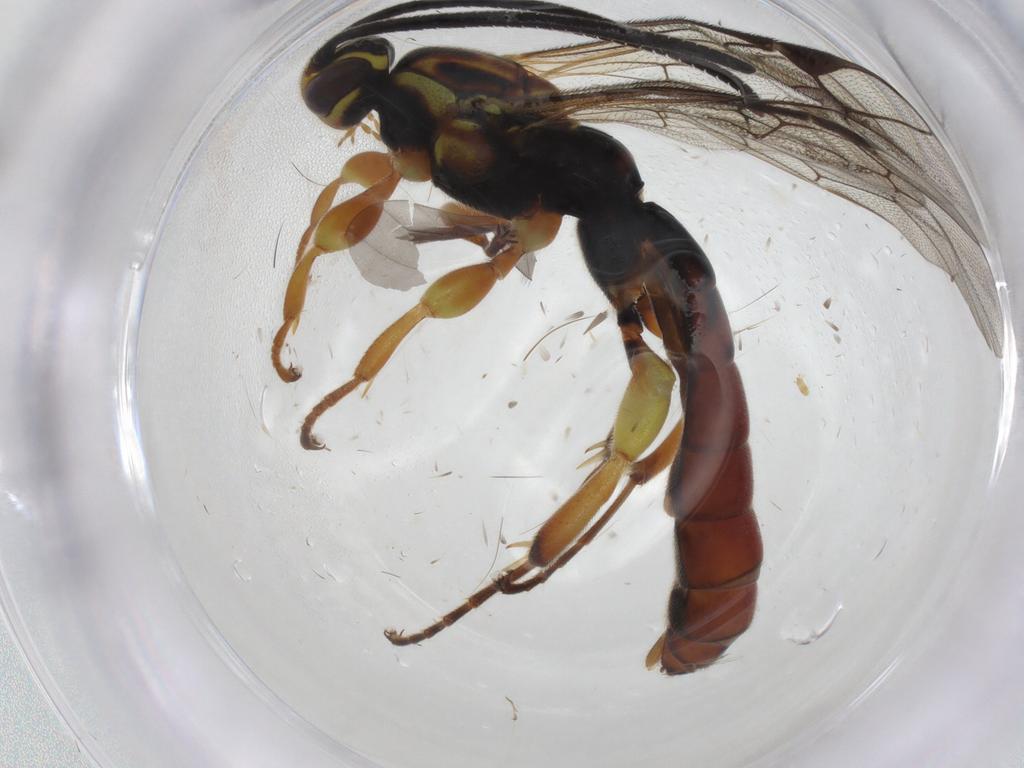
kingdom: Animalia
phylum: Arthropoda
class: Insecta
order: Hymenoptera
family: Ichneumonidae
